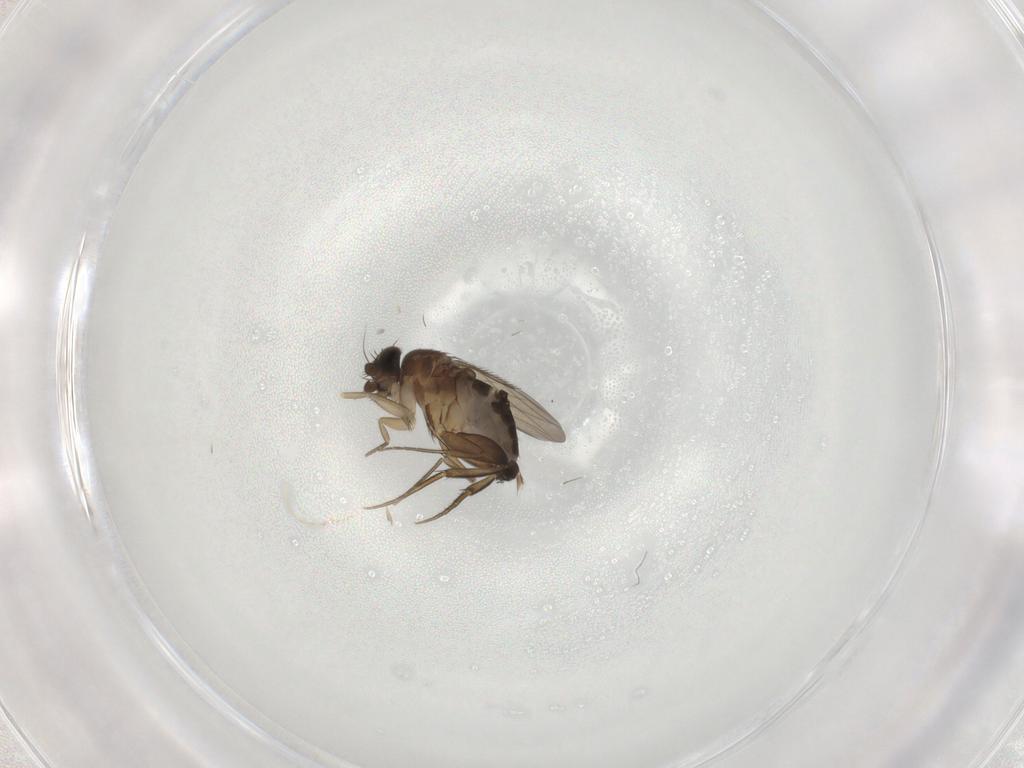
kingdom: Animalia
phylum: Arthropoda
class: Insecta
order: Diptera
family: Phoridae
